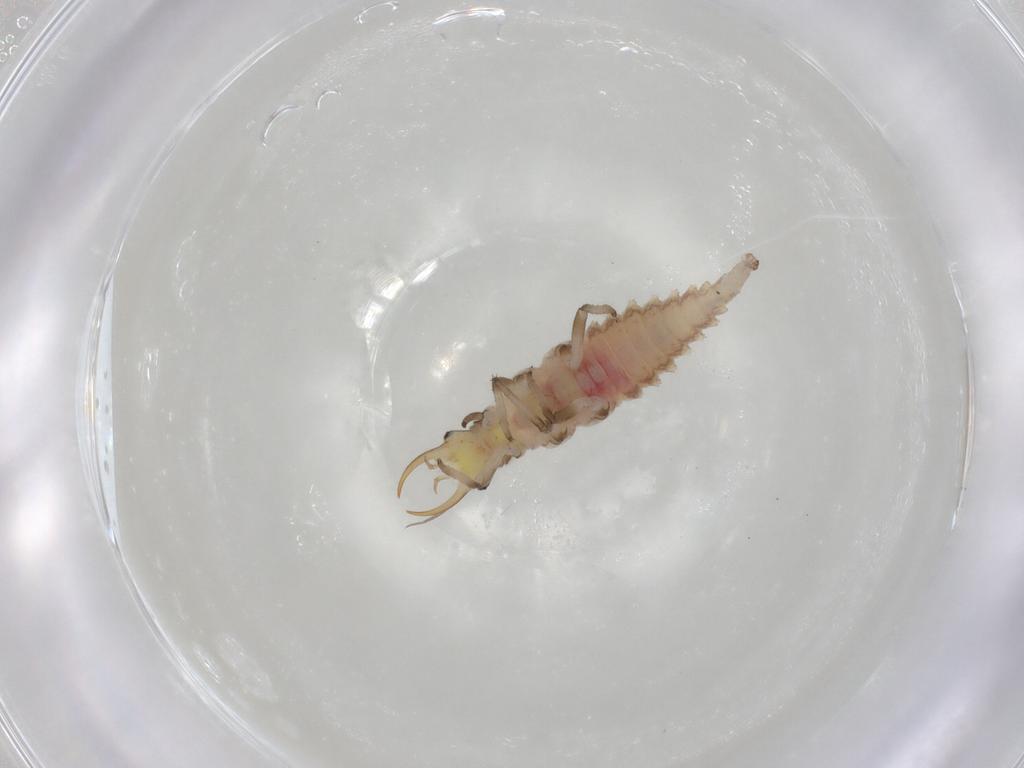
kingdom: Animalia
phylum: Arthropoda
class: Insecta
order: Neuroptera
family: Chrysopidae
